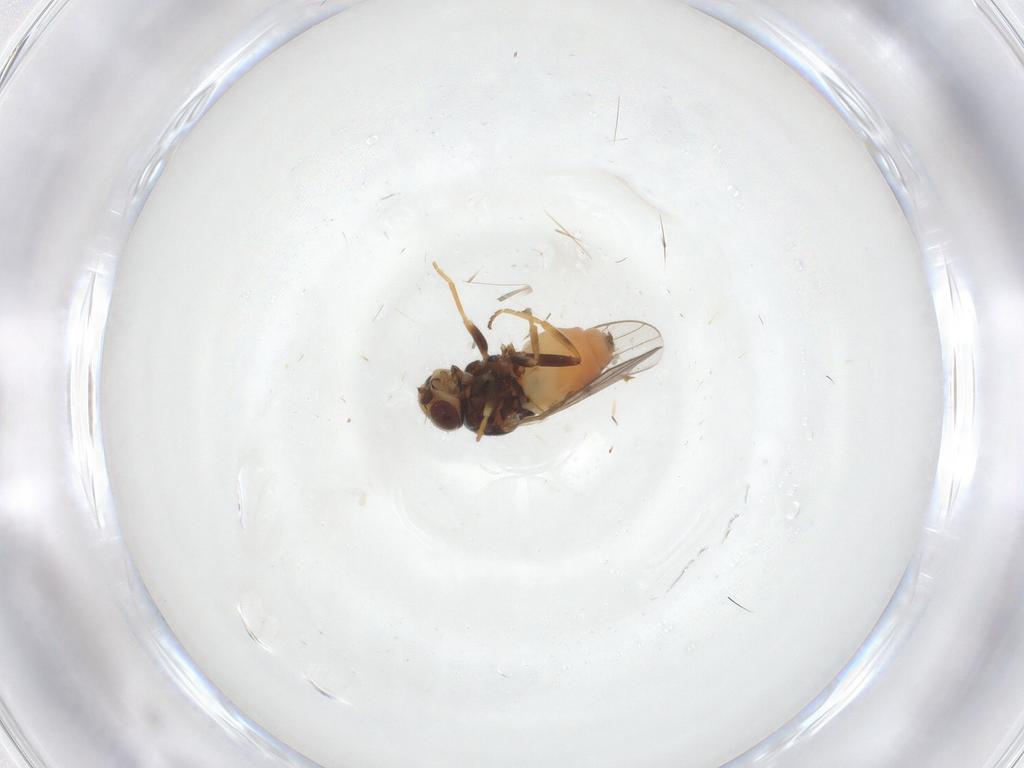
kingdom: Animalia
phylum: Arthropoda
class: Insecta
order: Diptera
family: Chloropidae
